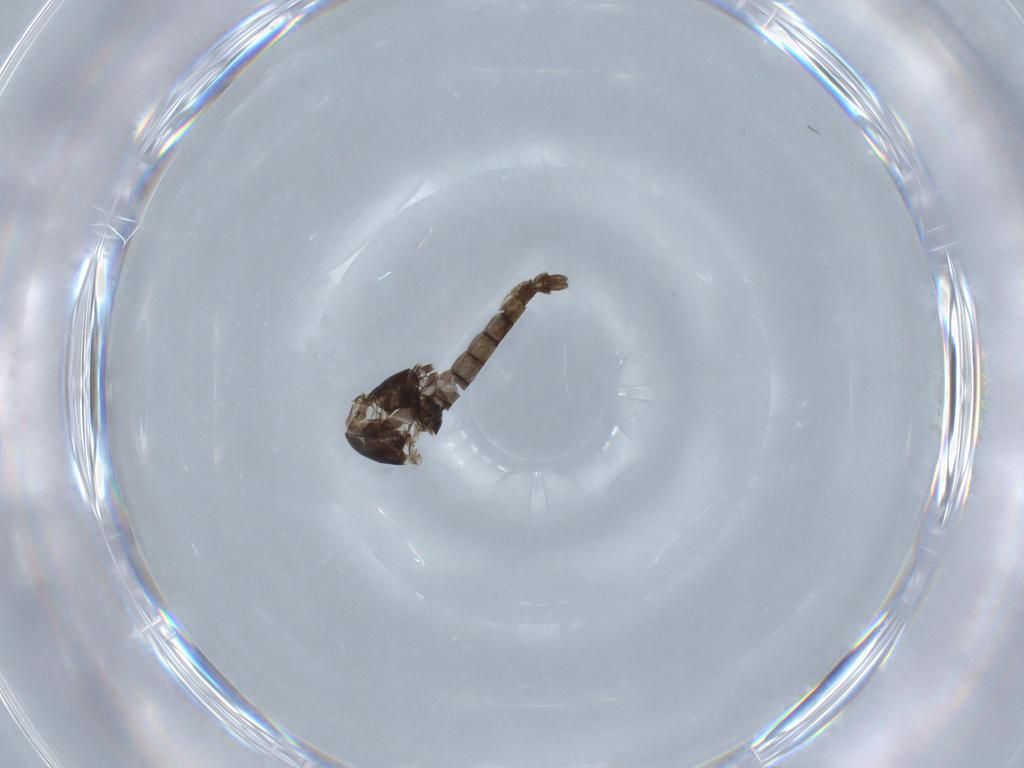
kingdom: Animalia
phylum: Arthropoda
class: Insecta
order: Diptera
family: Chironomidae
